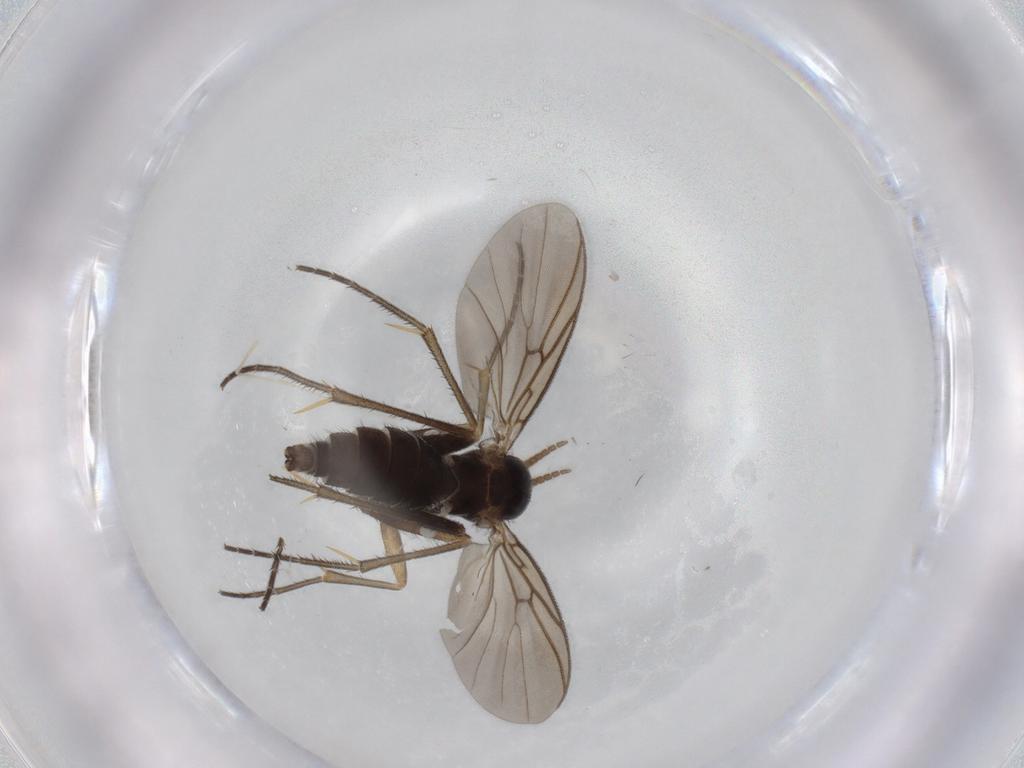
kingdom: Animalia
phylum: Arthropoda
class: Insecta
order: Diptera
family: Cecidomyiidae
